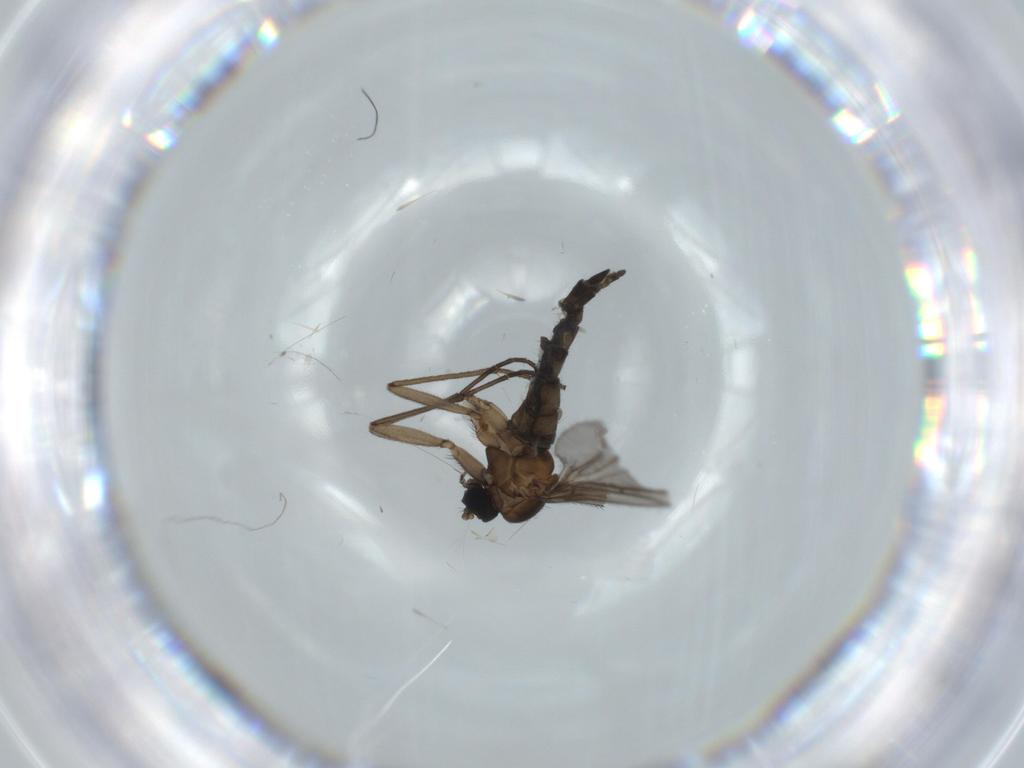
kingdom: Animalia
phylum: Arthropoda
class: Insecta
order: Diptera
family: Sciaridae
